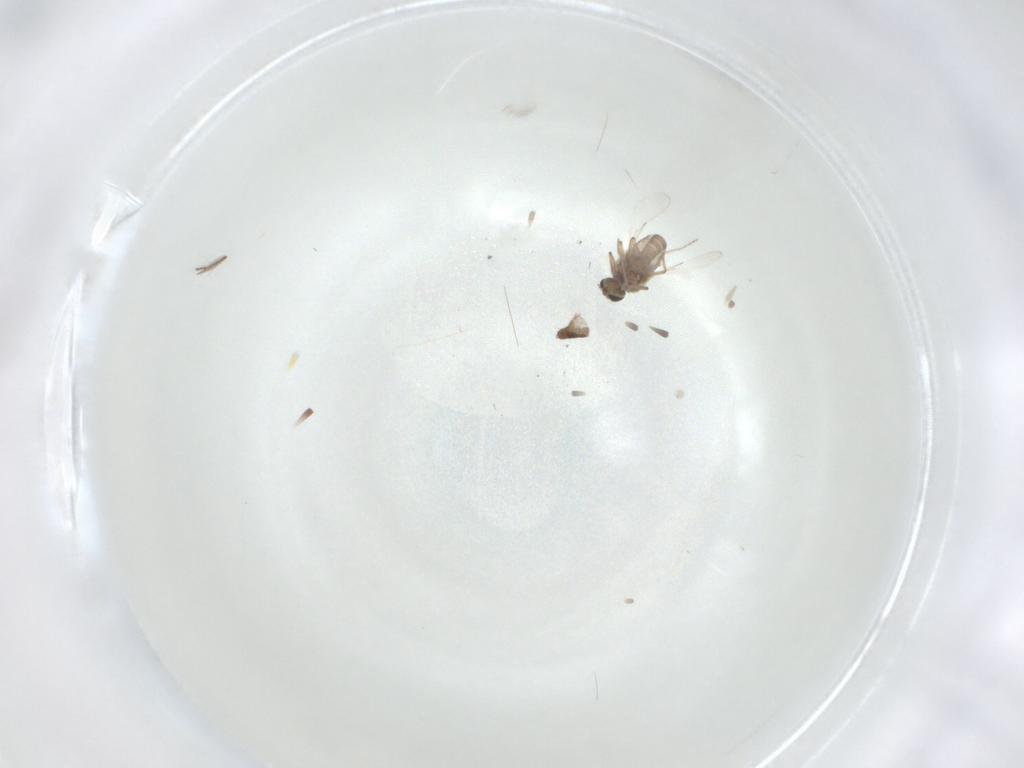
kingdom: Animalia
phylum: Arthropoda
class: Insecta
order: Diptera
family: Ceratopogonidae
